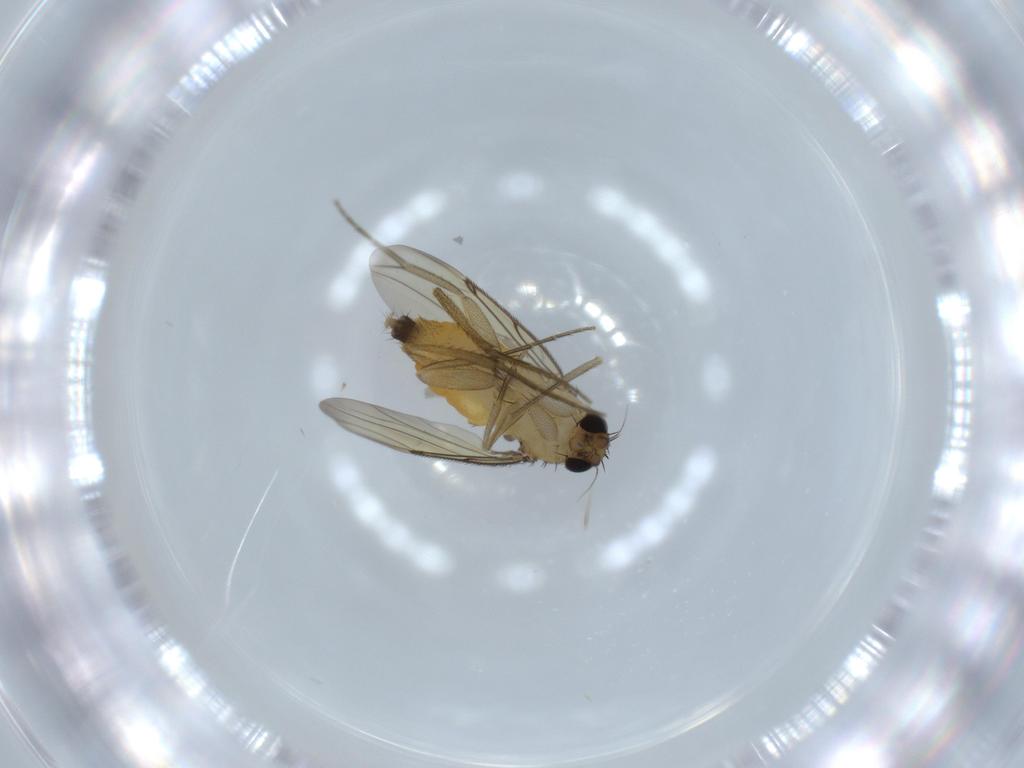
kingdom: Animalia
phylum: Arthropoda
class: Insecta
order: Diptera
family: Phoridae
